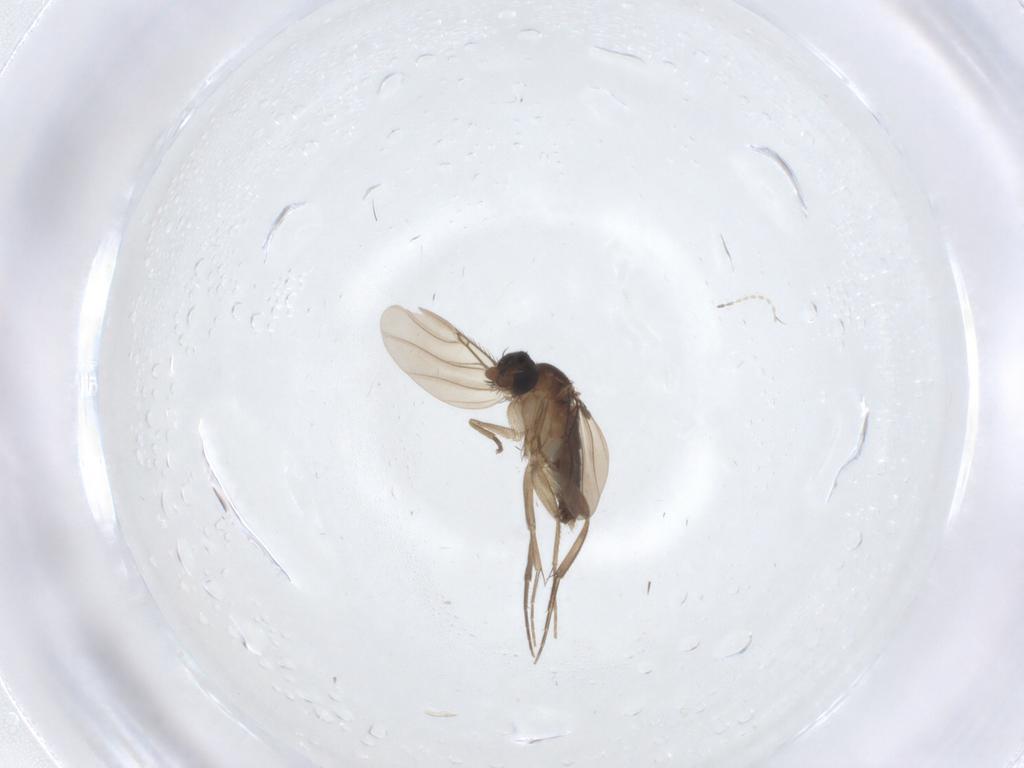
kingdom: Animalia
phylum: Arthropoda
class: Insecta
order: Diptera
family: Phoridae
